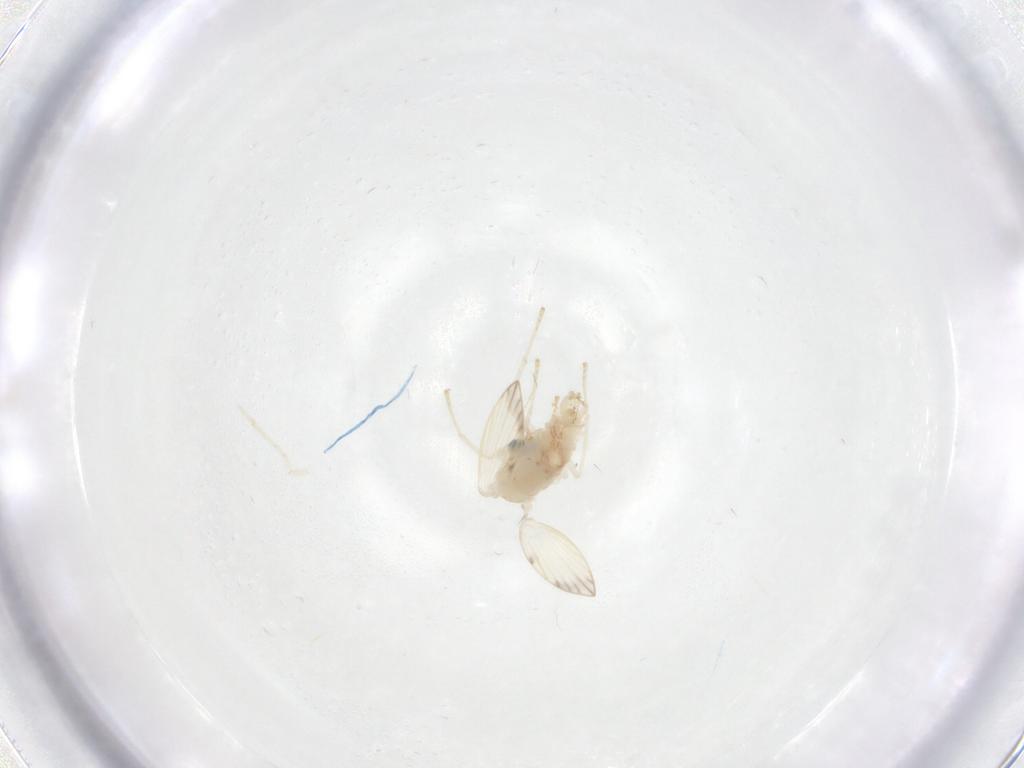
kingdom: Animalia
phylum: Arthropoda
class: Insecta
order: Diptera
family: Psychodidae
